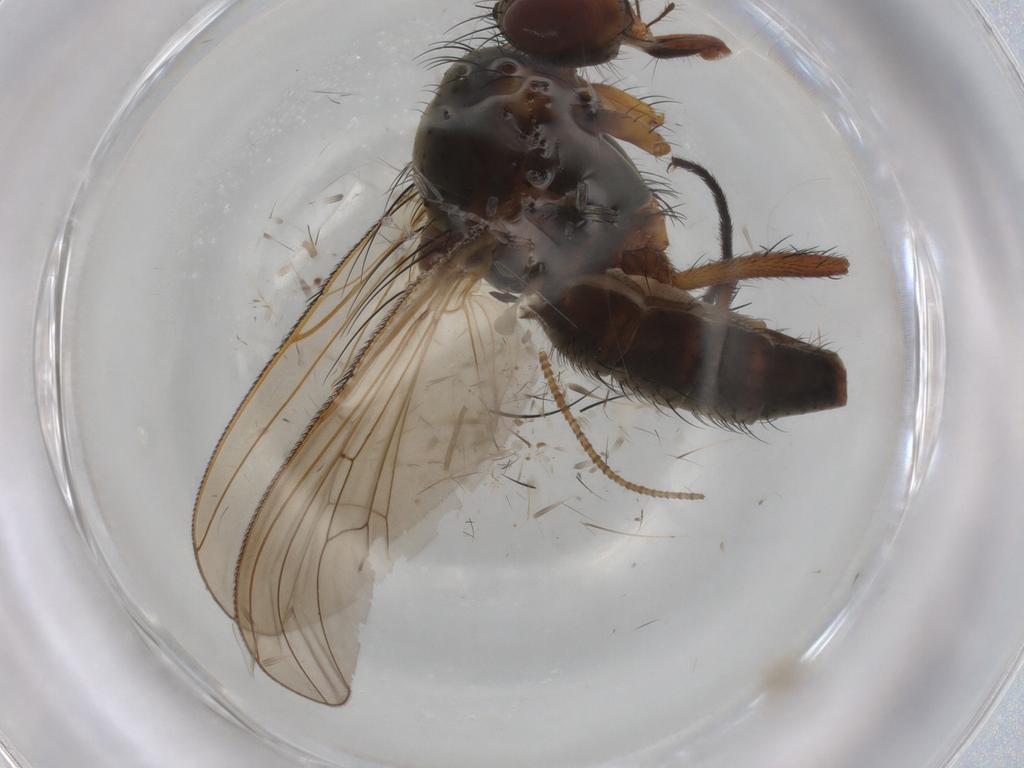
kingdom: Animalia
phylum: Arthropoda
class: Insecta
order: Diptera
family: Anthomyiidae
